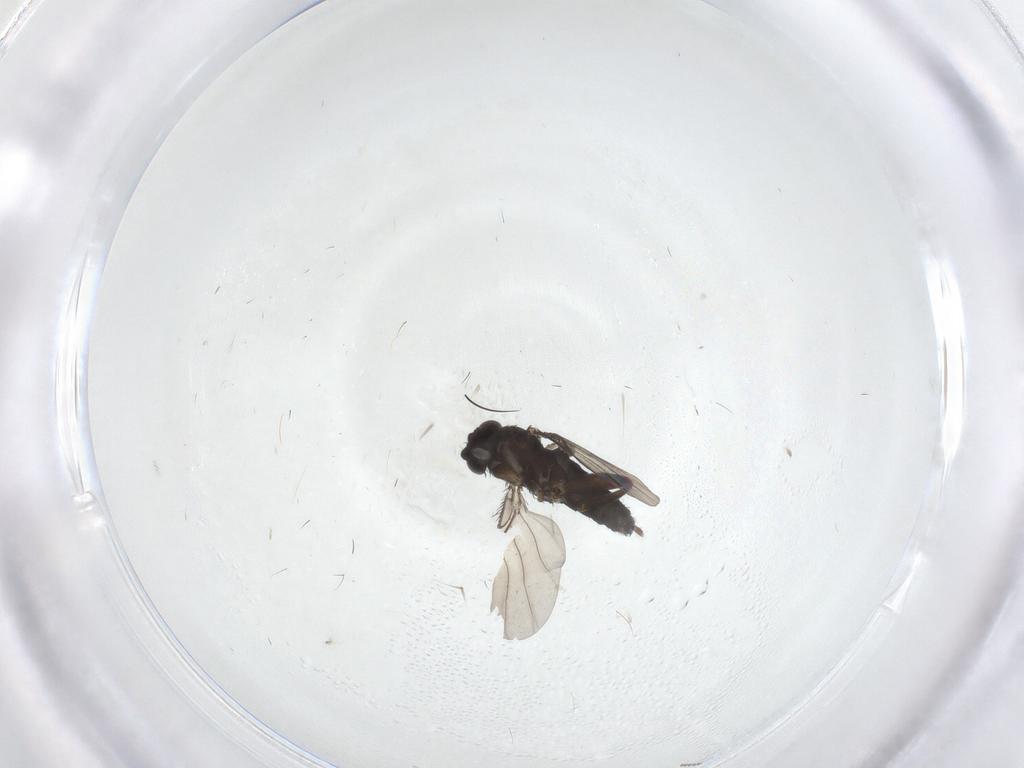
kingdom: Animalia
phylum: Arthropoda
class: Insecta
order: Diptera
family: Phoridae
